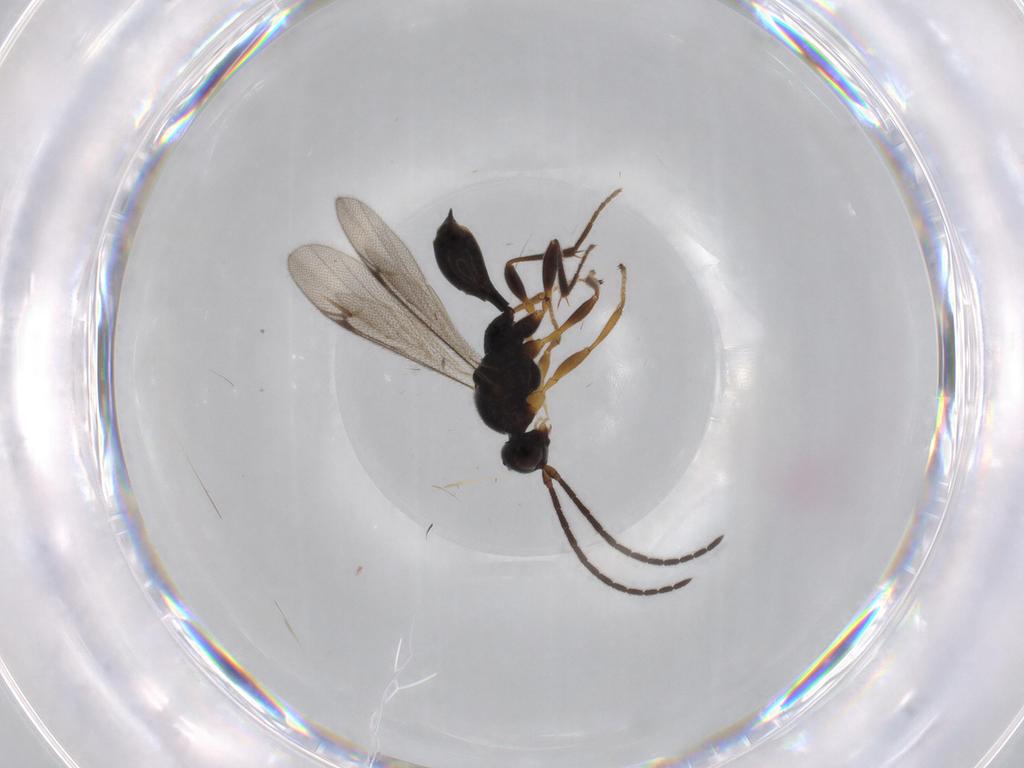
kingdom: Animalia
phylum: Arthropoda
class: Insecta
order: Hymenoptera
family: Proctotrupidae
